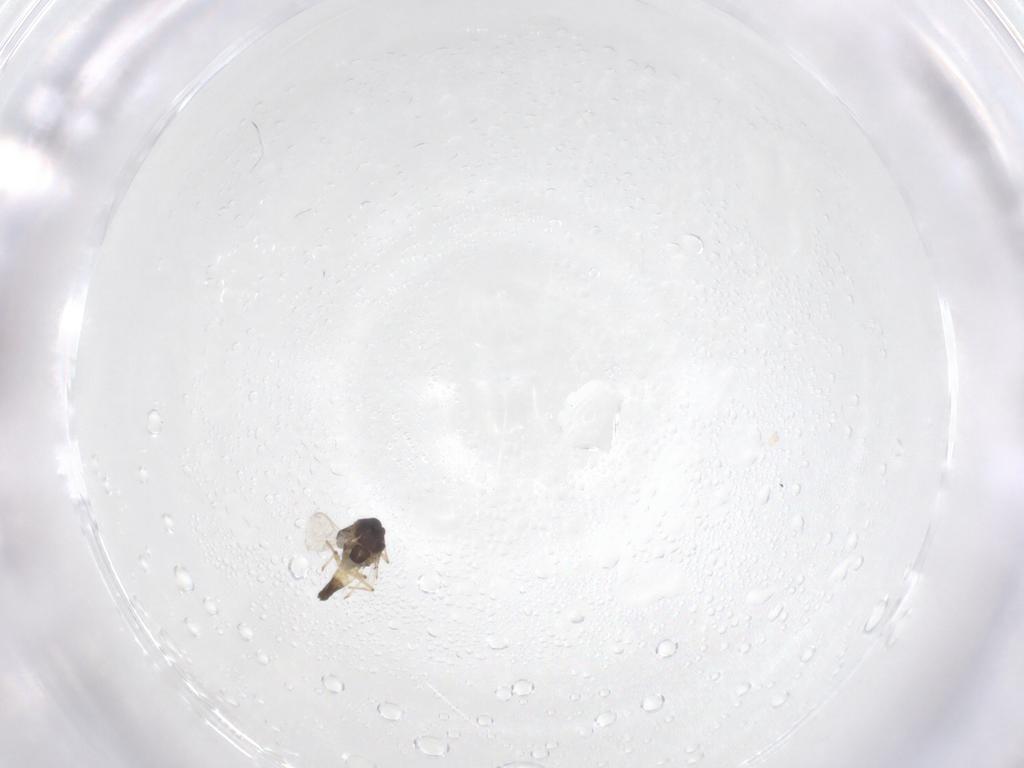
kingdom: Animalia
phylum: Arthropoda
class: Insecta
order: Diptera
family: Chironomidae
